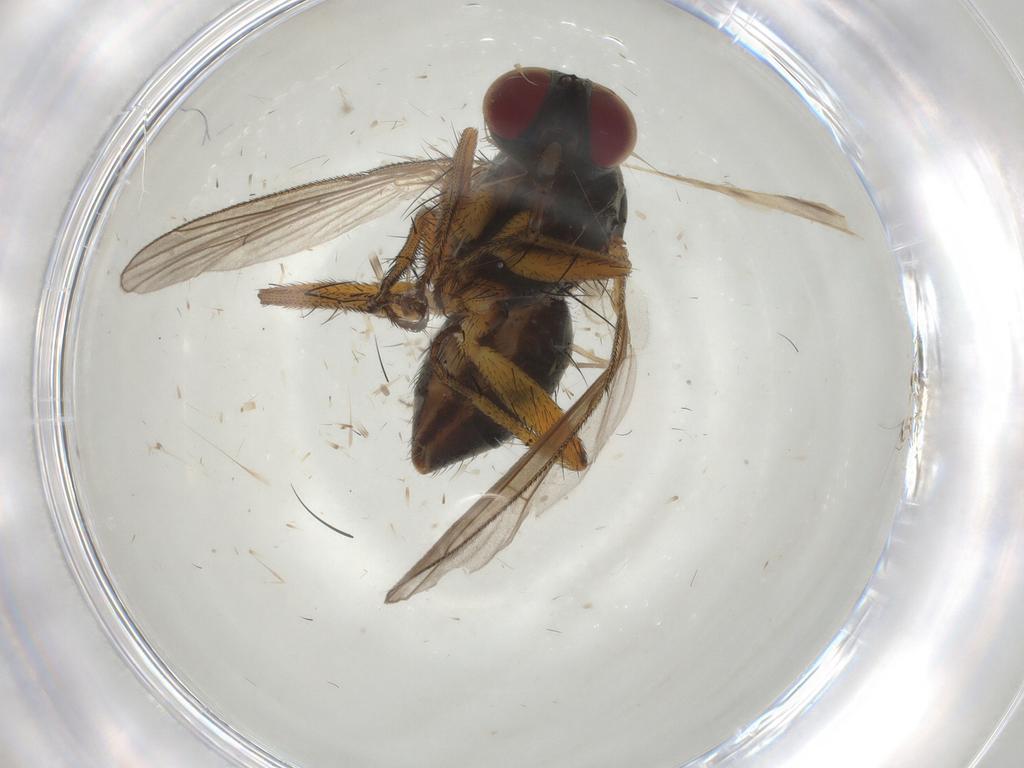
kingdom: Animalia
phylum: Arthropoda
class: Insecta
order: Diptera
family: Muscidae
